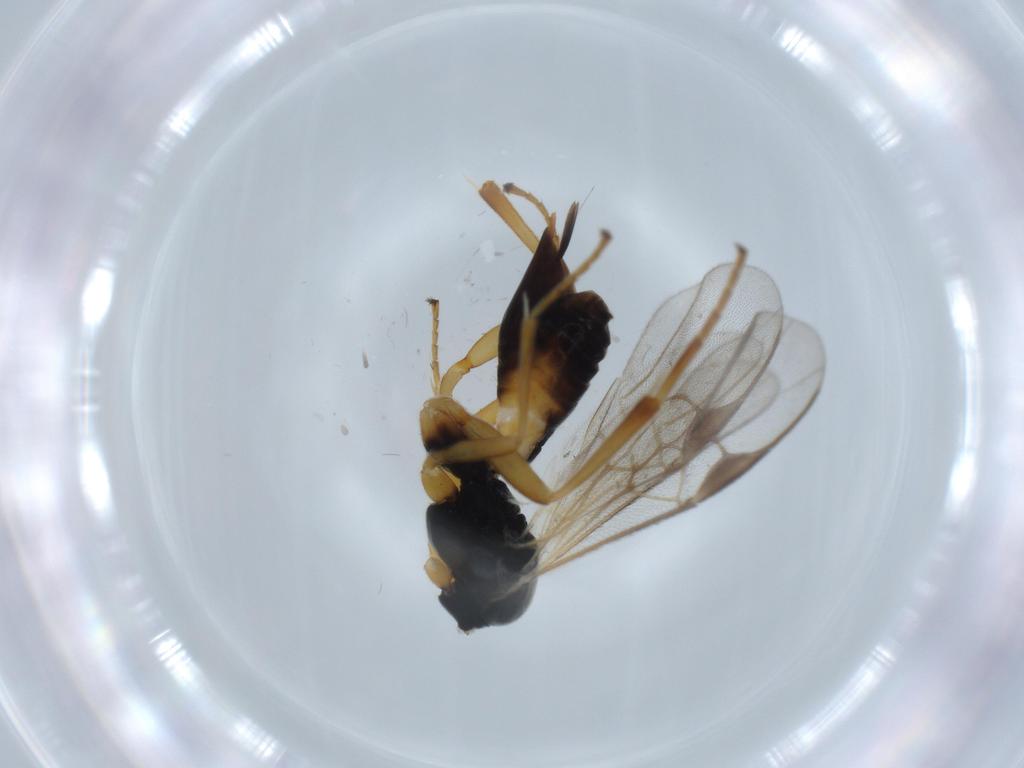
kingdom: Animalia
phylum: Arthropoda
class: Insecta
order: Hymenoptera
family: Braconidae
